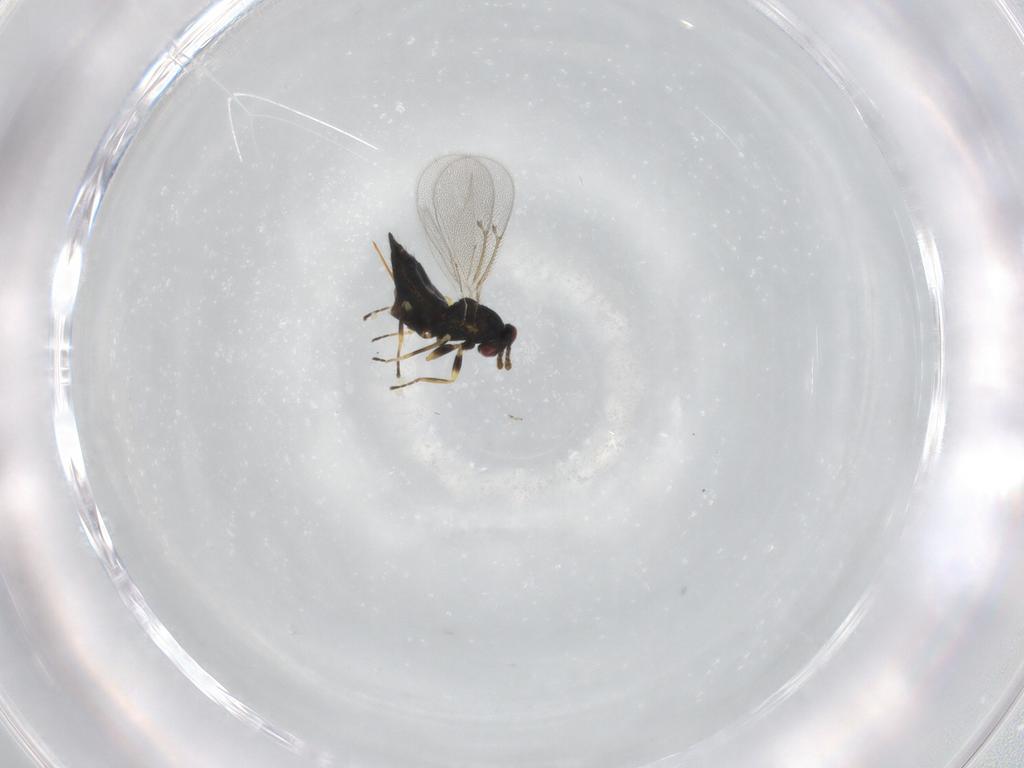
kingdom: Animalia
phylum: Arthropoda
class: Insecta
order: Hymenoptera
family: Eulophidae
